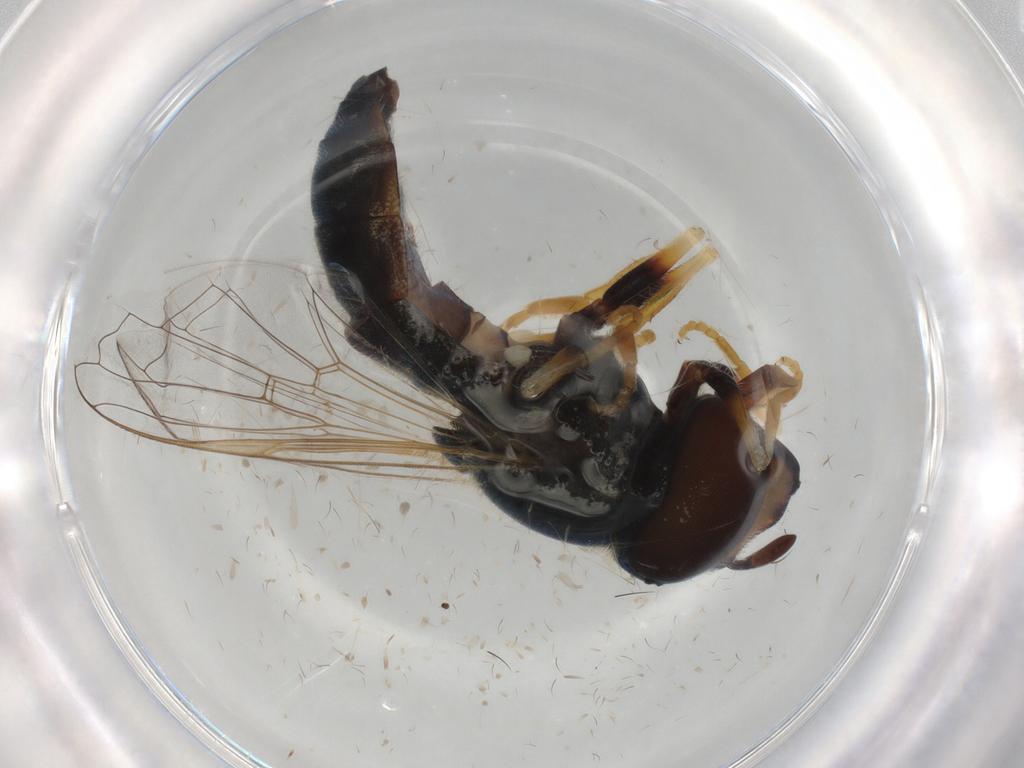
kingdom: Animalia
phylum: Arthropoda
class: Insecta
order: Diptera
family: Syrphidae
